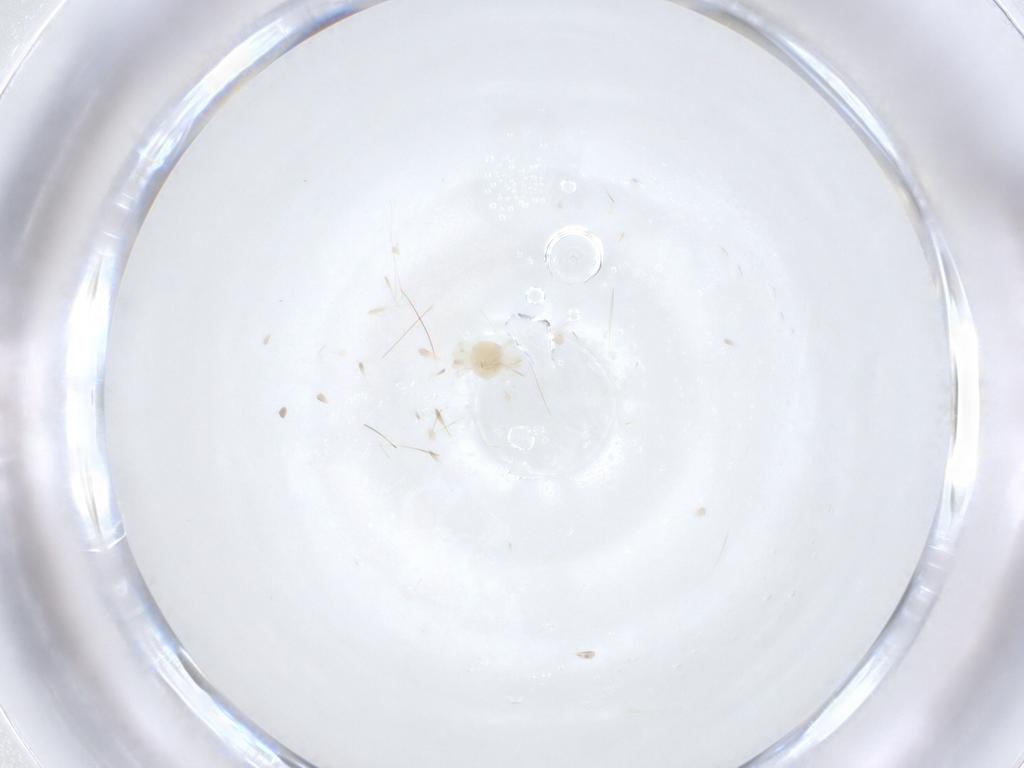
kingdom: Animalia
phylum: Arthropoda
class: Arachnida
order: Trombidiformes
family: Anystidae
